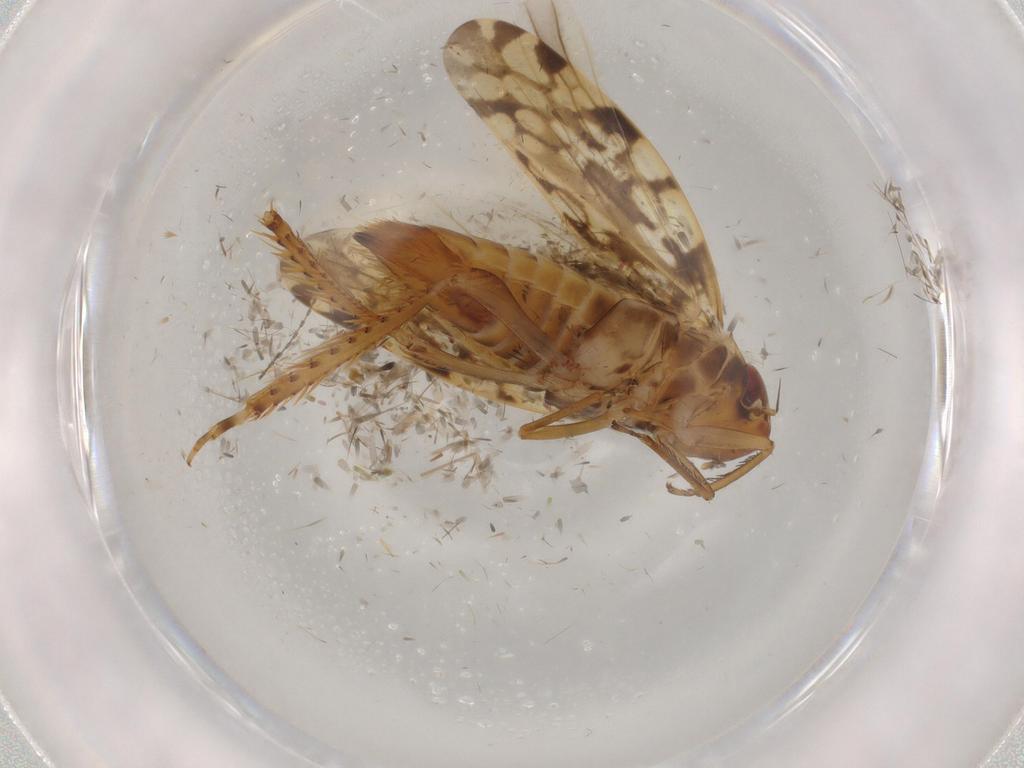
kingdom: Animalia
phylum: Arthropoda
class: Insecta
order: Hemiptera
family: Cicadellidae
